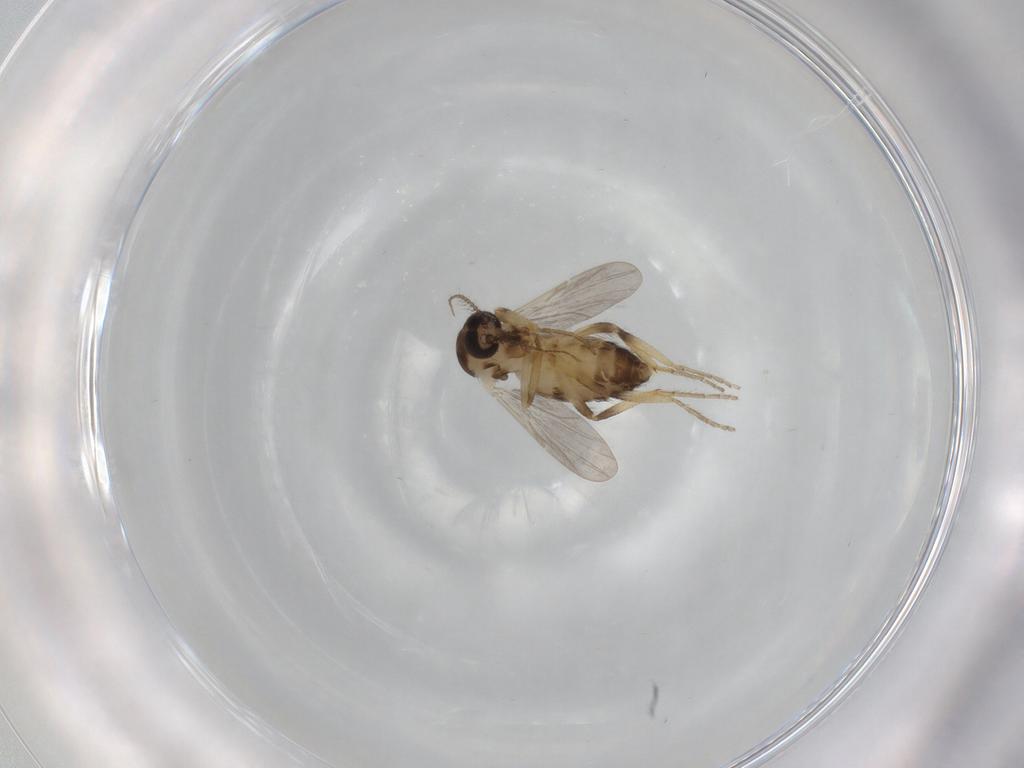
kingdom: Animalia
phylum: Arthropoda
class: Insecta
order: Diptera
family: Ceratopogonidae
